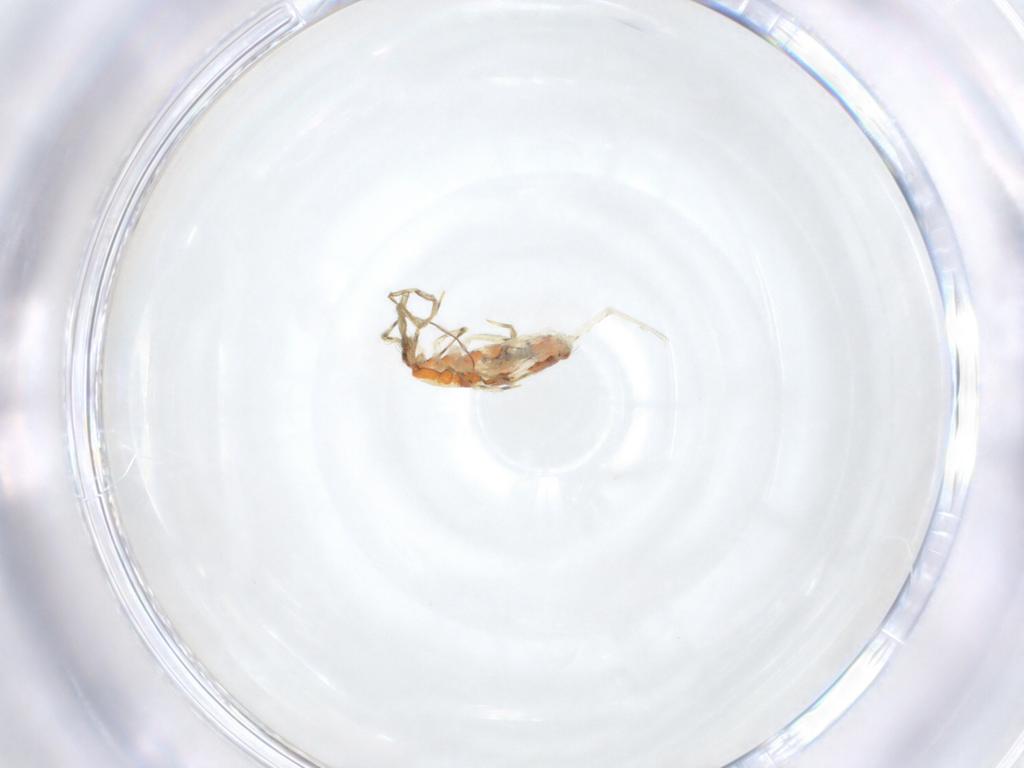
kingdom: Animalia
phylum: Arthropoda
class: Collembola
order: Entomobryomorpha
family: Paronellidae
